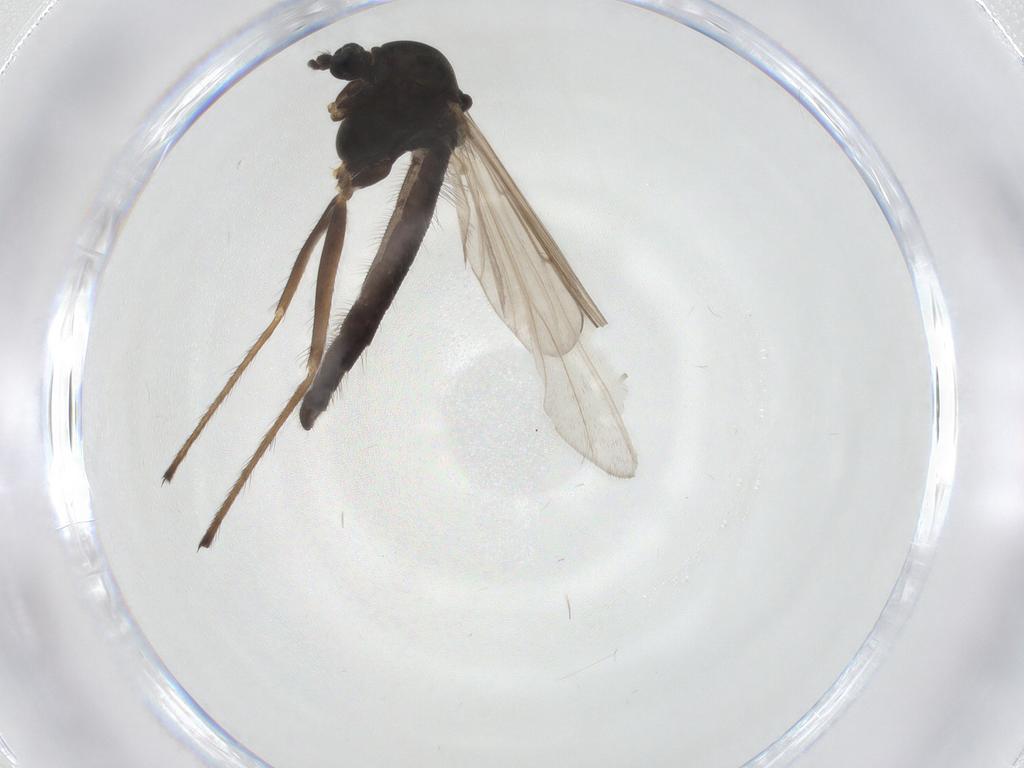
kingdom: Animalia
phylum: Arthropoda
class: Insecta
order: Diptera
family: Chironomidae
